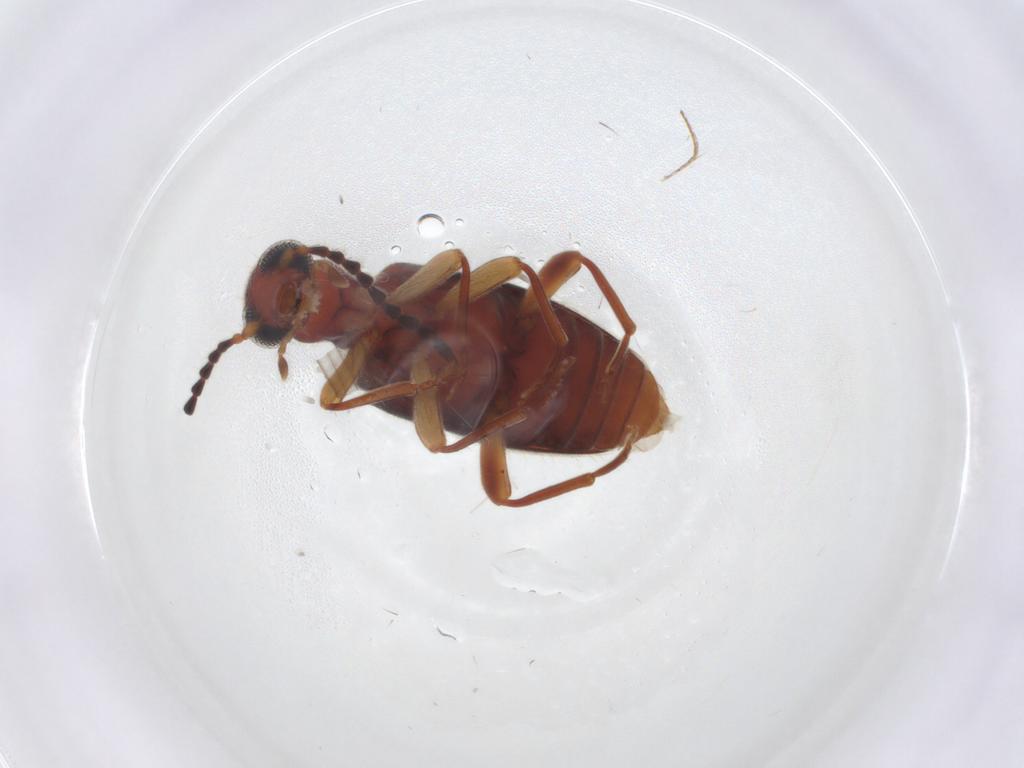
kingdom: Animalia
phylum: Arthropoda
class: Insecta
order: Coleoptera
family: Anthicidae
